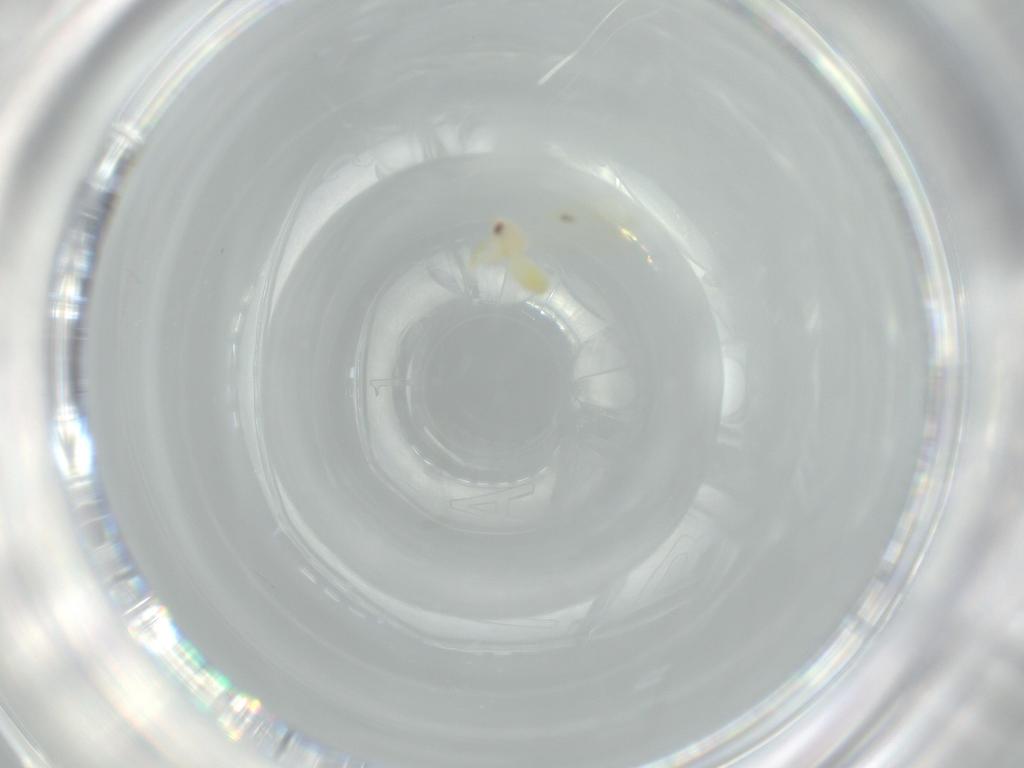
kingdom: Animalia
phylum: Arthropoda
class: Insecta
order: Hemiptera
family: Aleyrodidae
